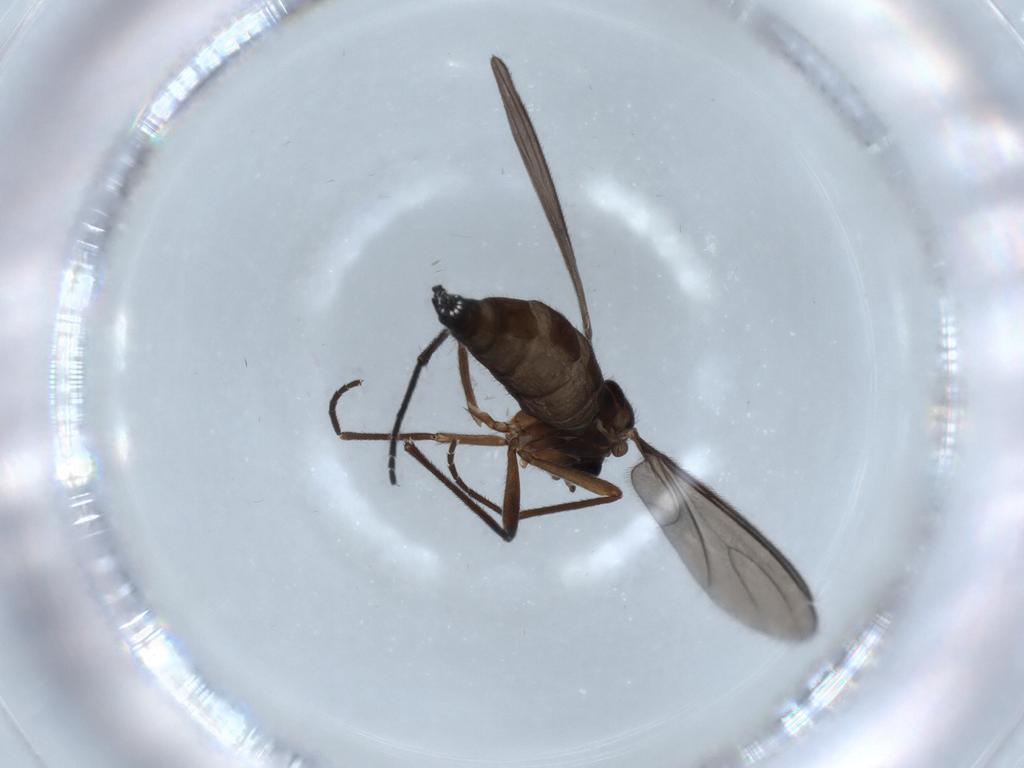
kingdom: Animalia
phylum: Arthropoda
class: Insecta
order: Diptera
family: Sciaridae
